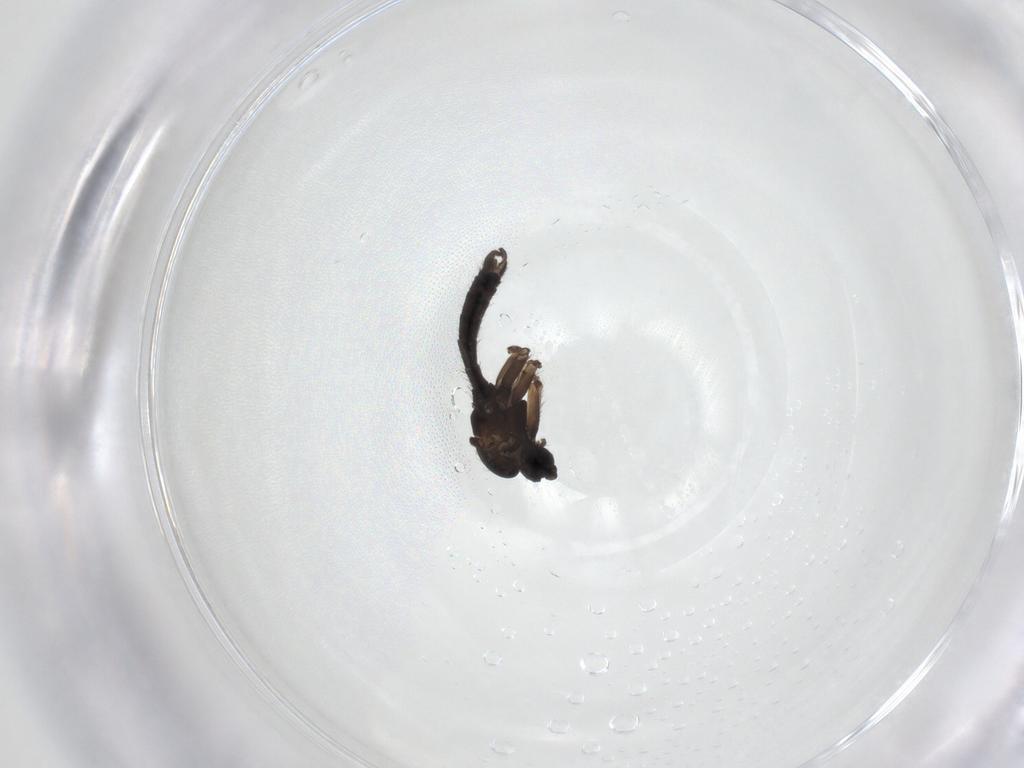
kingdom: Animalia
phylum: Arthropoda
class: Insecta
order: Diptera
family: Sciaridae
